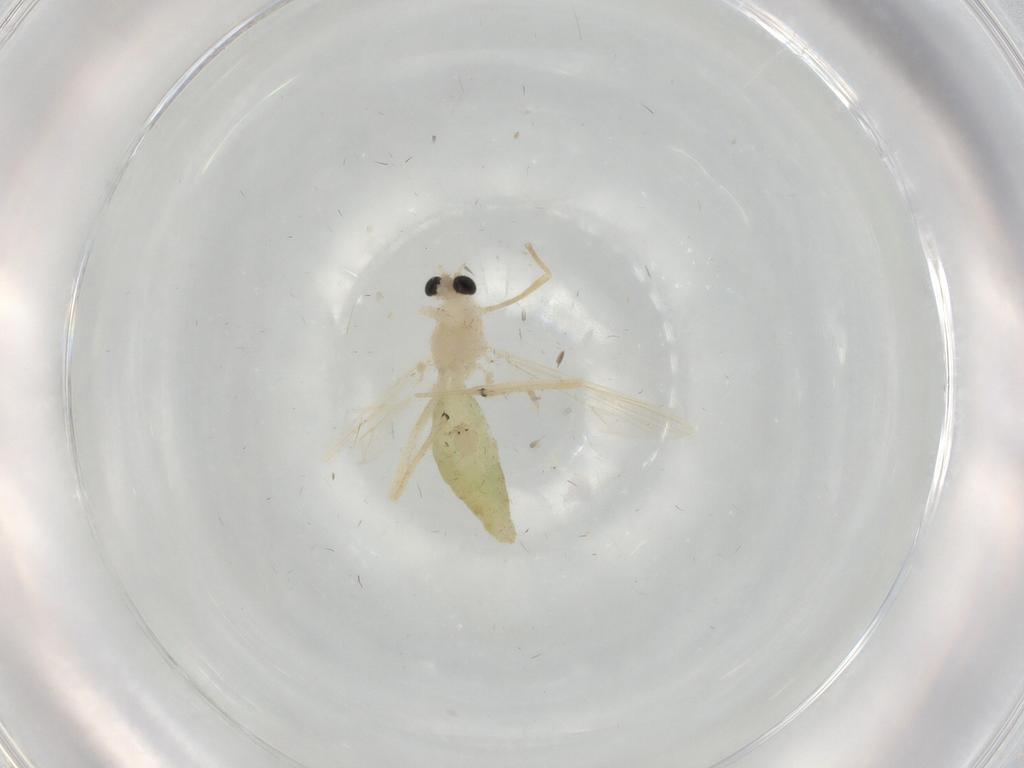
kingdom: Animalia
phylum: Arthropoda
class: Insecta
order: Diptera
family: Chironomidae
